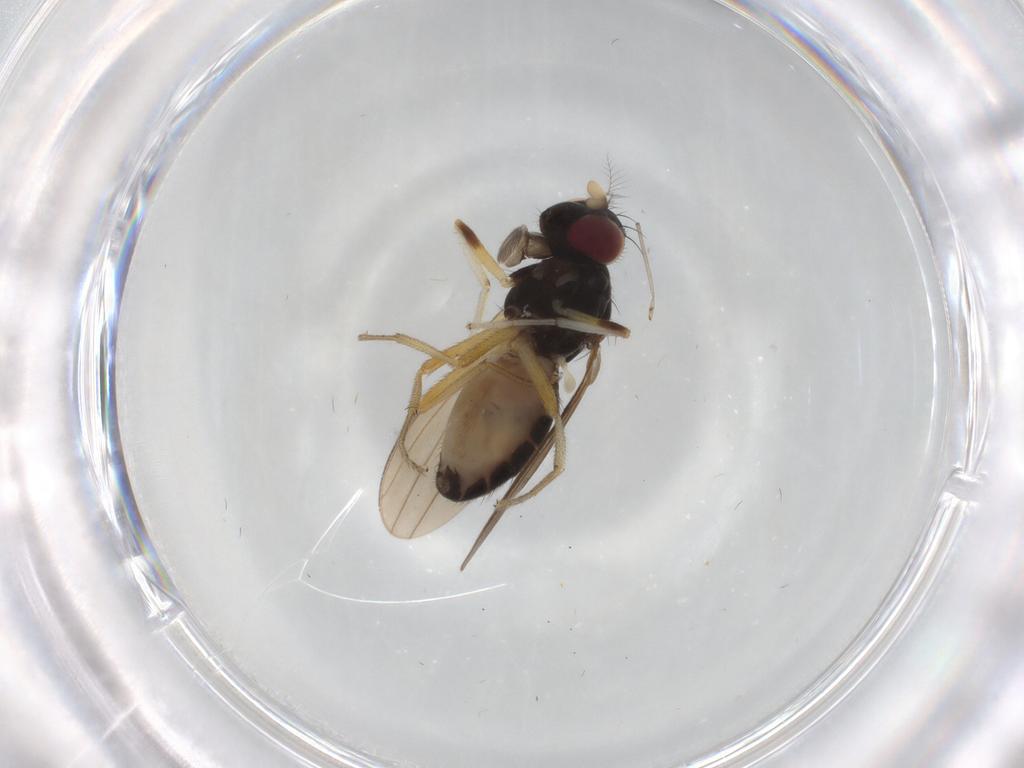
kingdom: Animalia
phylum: Arthropoda
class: Insecta
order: Diptera
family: Lauxaniidae
